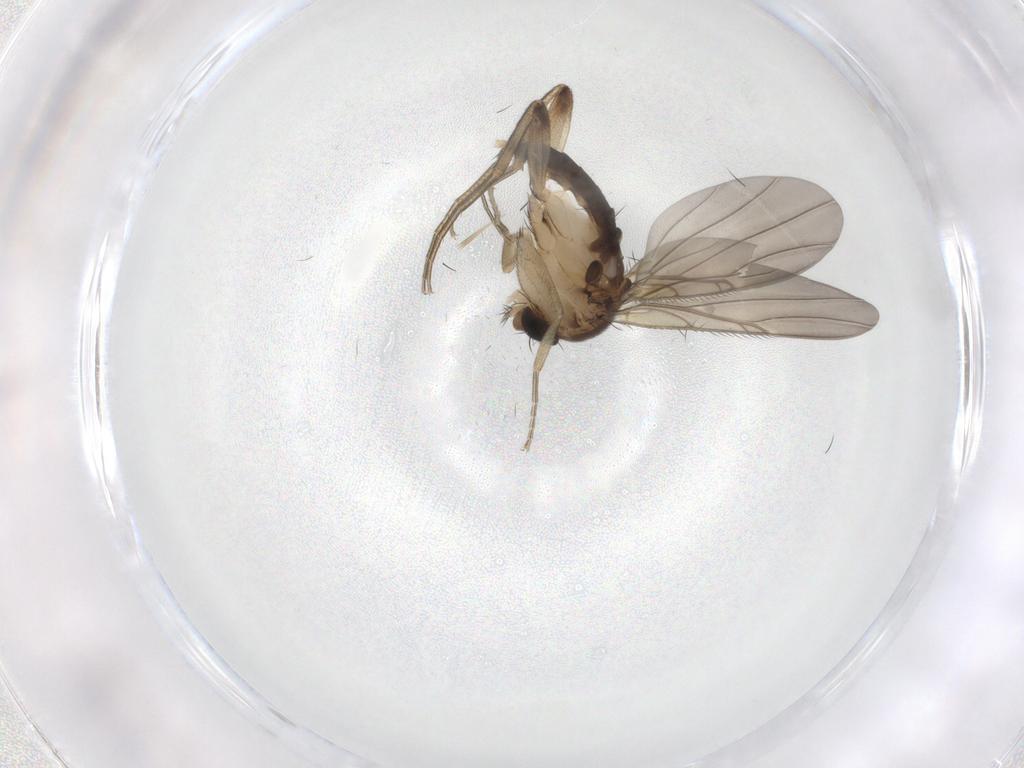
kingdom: Animalia
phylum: Arthropoda
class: Insecta
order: Diptera
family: Phoridae
